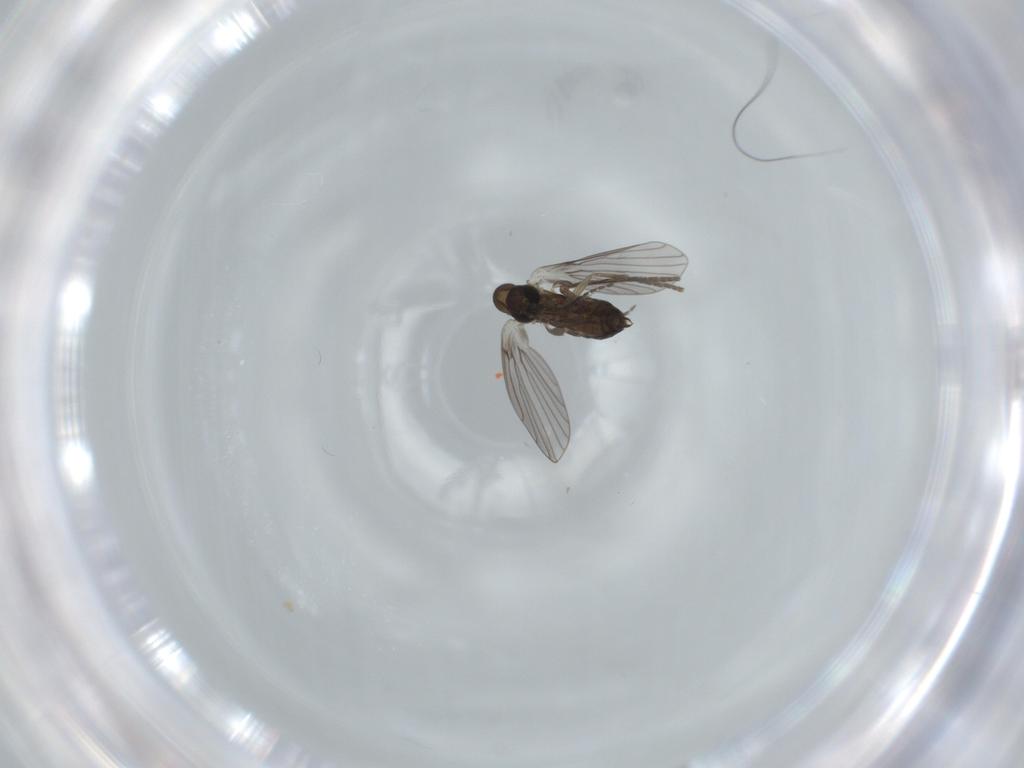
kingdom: Animalia
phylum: Arthropoda
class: Insecta
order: Diptera
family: Psychodidae
